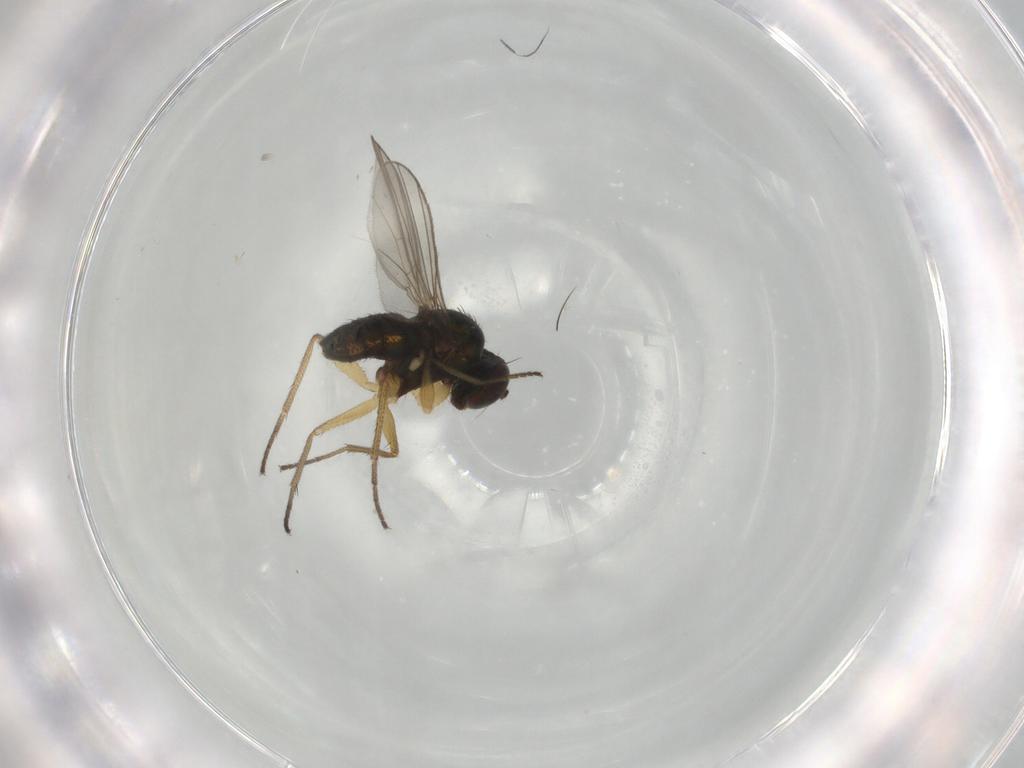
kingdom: Animalia
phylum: Arthropoda
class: Insecta
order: Diptera
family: Dolichopodidae
